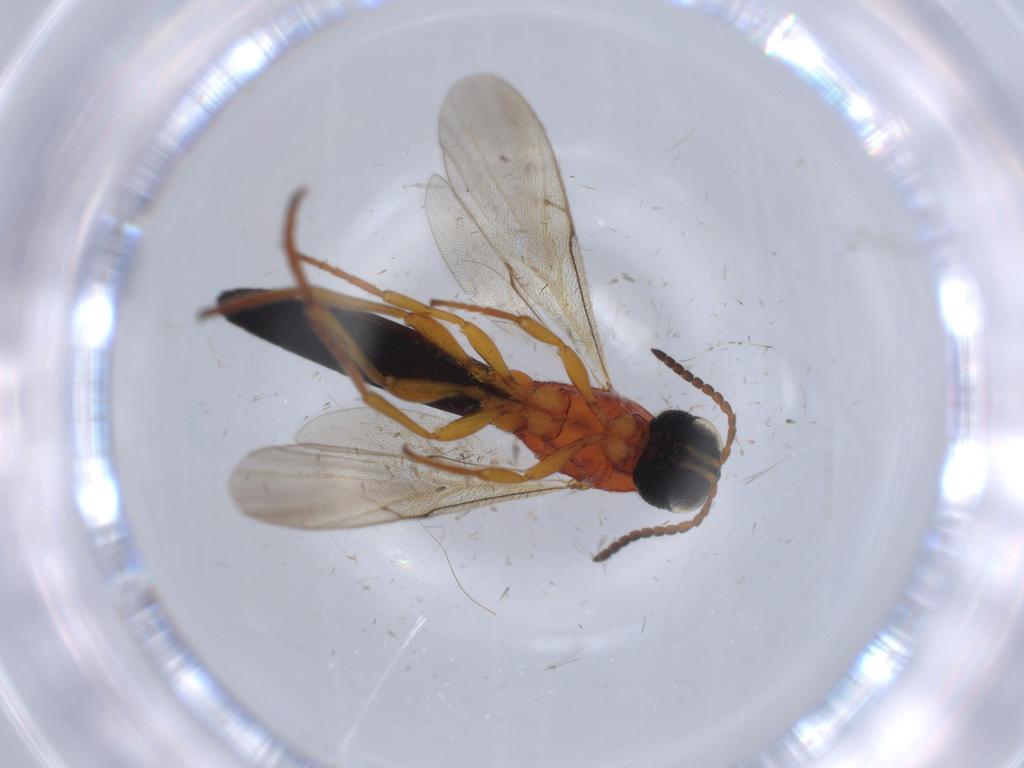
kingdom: Animalia
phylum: Arthropoda
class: Insecta
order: Hymenoptera
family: Scelionidae
